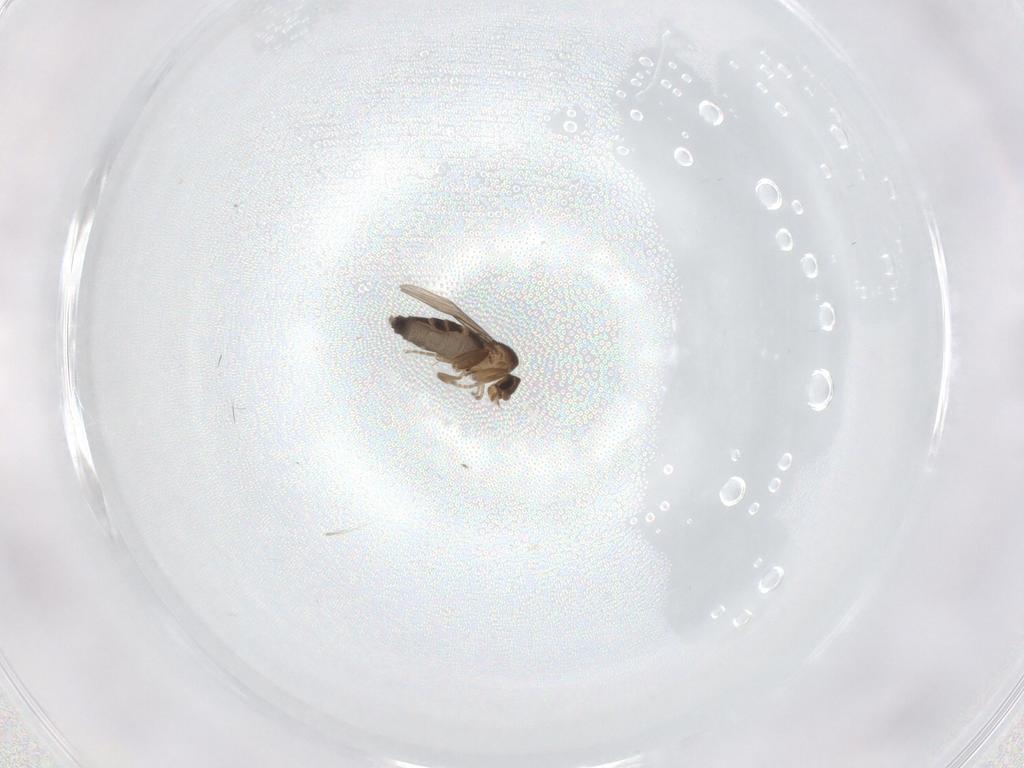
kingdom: Animalia
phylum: Arthropoda
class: Insecta
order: Diptera
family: Phoridae
